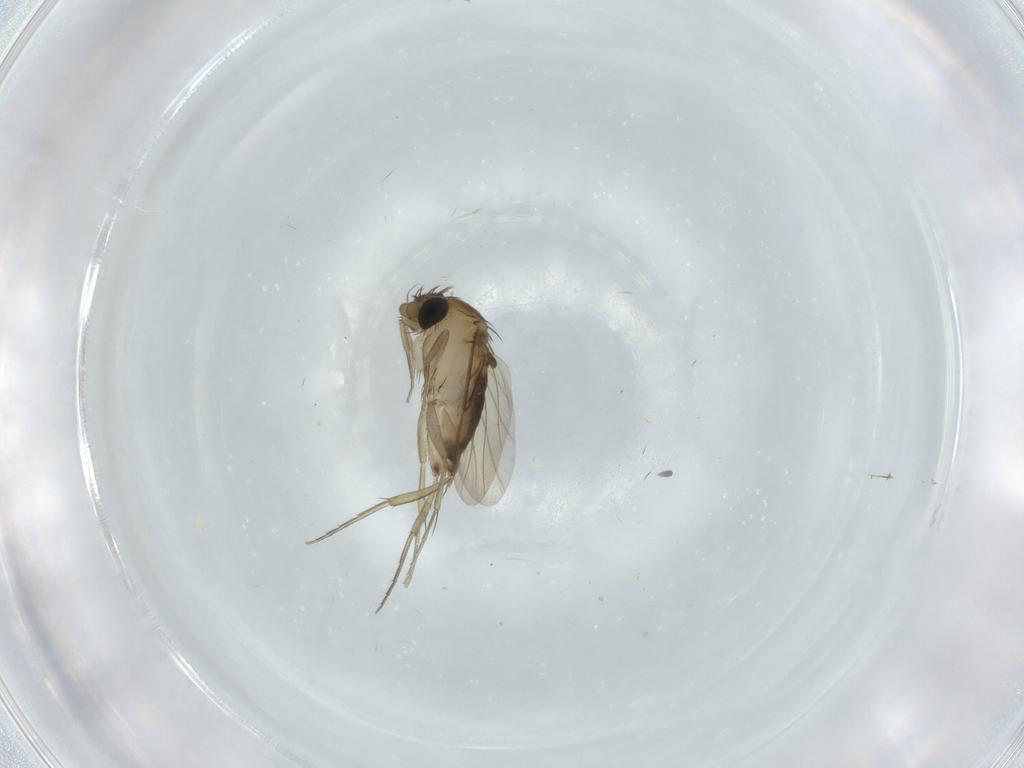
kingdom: Animalia
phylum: Arthropoda
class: Insecta
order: Diptera
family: Phoridae
